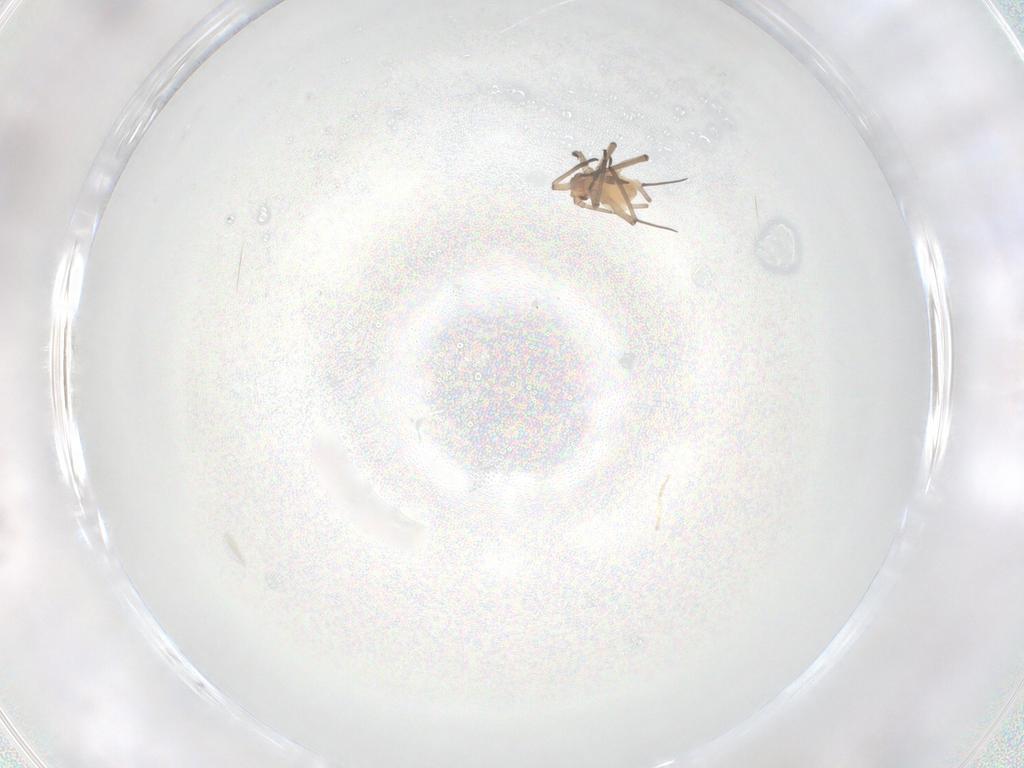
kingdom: Animalia
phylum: Arthropoda
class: Insecta
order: Hemiptera
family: Aphididae
